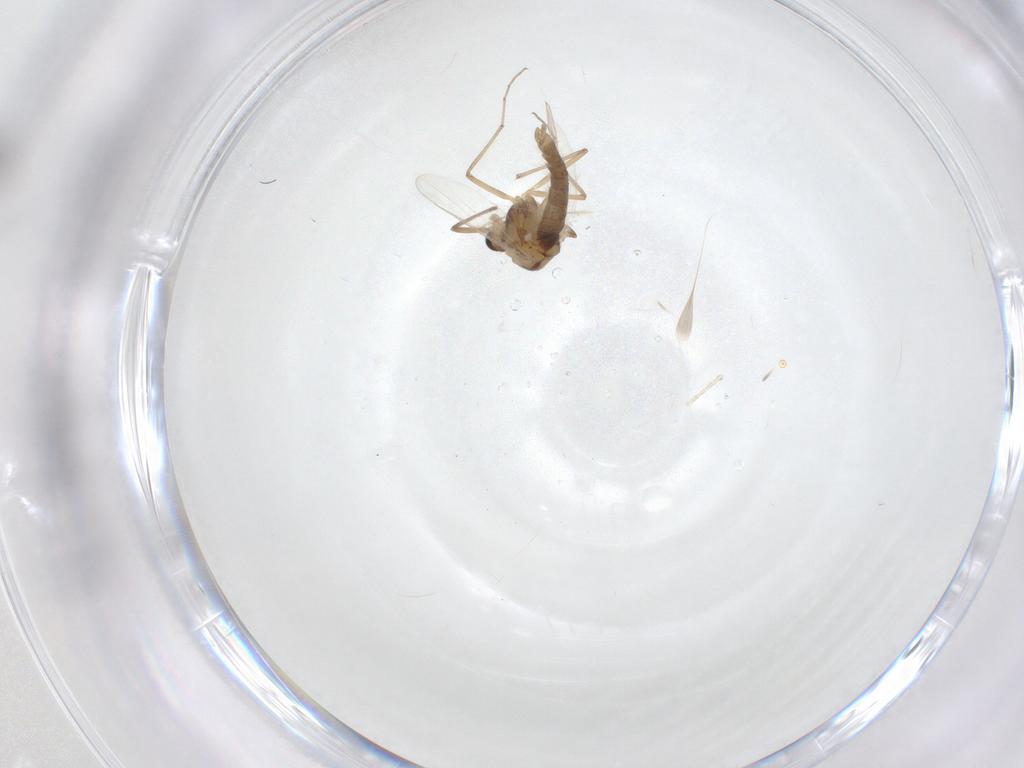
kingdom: Animalia
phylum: Arthropoda
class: Insecta
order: Diptera
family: Chironomidae
